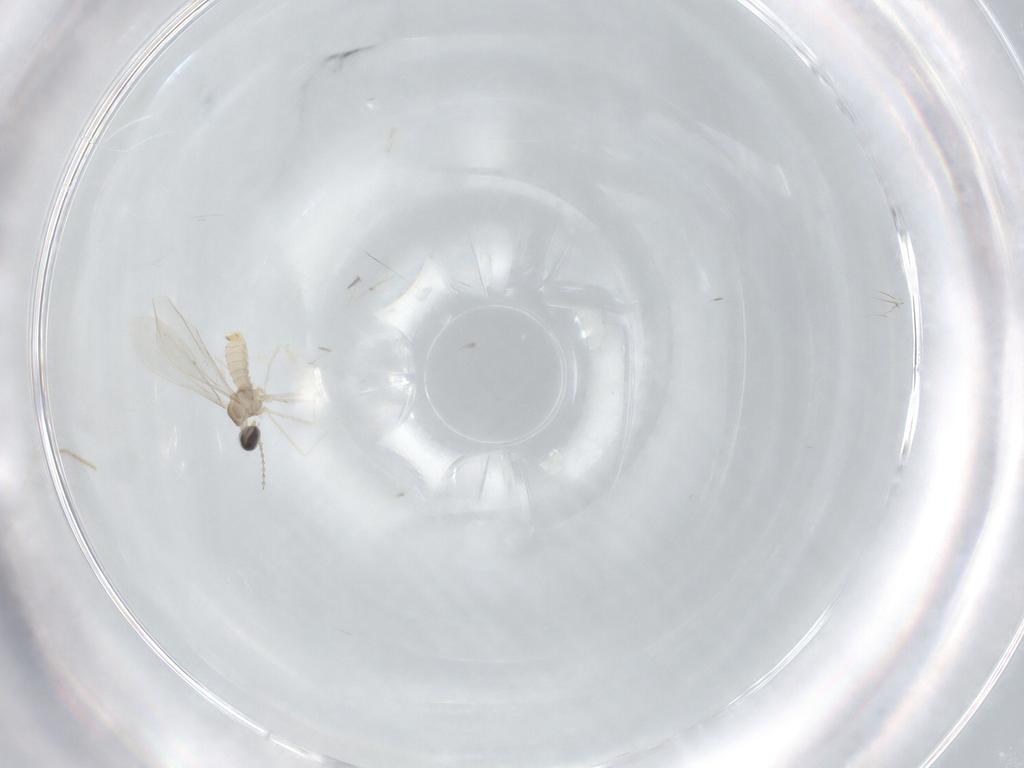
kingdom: Animalia
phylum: Arthropoda
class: Insecta
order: Diptera
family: Cecidomyiidae
